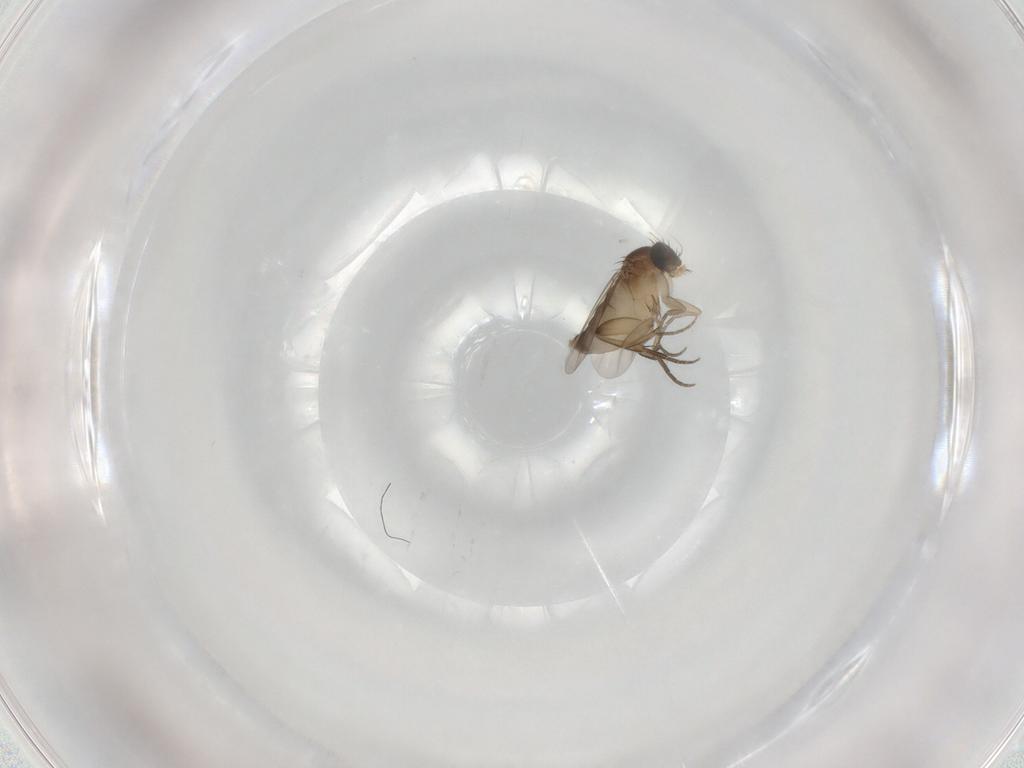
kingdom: Animalia
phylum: Arthropoda
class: Insecta
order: Diptera
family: Phoridae
